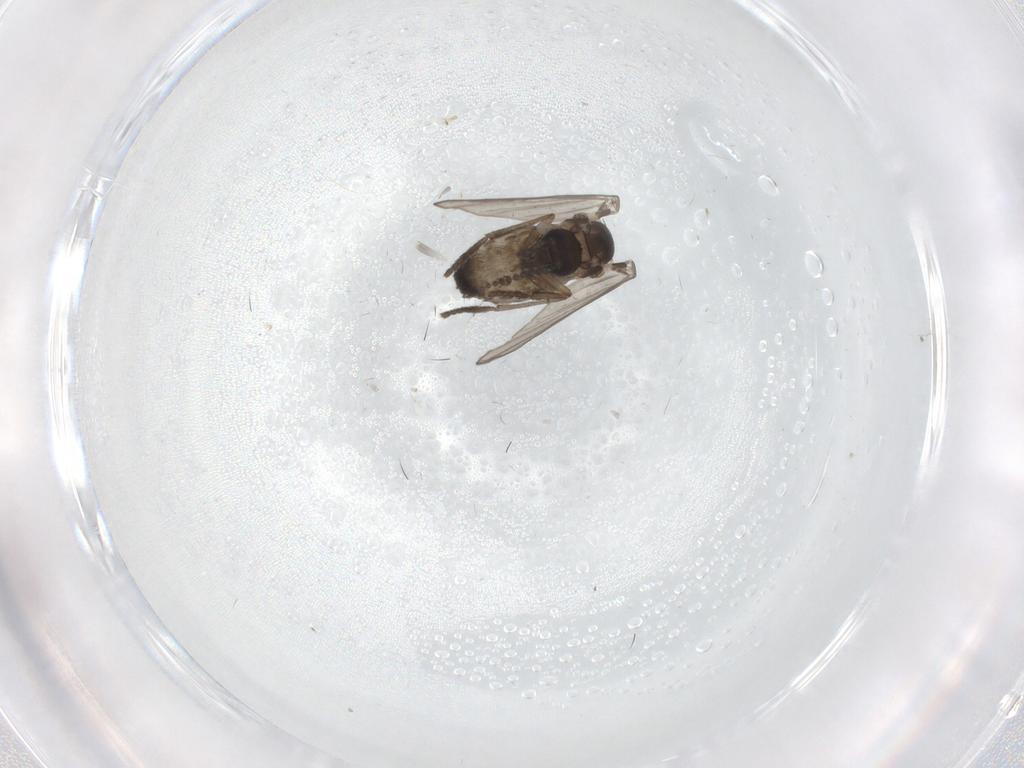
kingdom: Animalia
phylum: Arthropoda
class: Insecta
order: Diptera
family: Psychodidae
